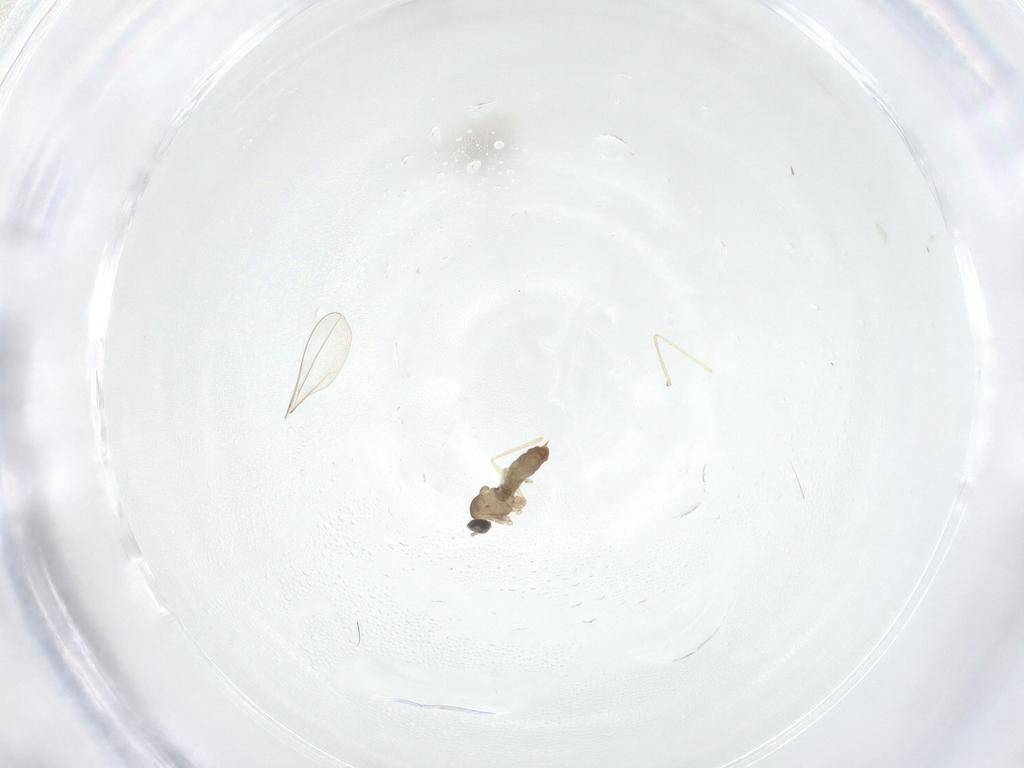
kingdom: Animalia
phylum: Arthropoda
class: Insecta
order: Diptera
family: Cecidomyiidae
